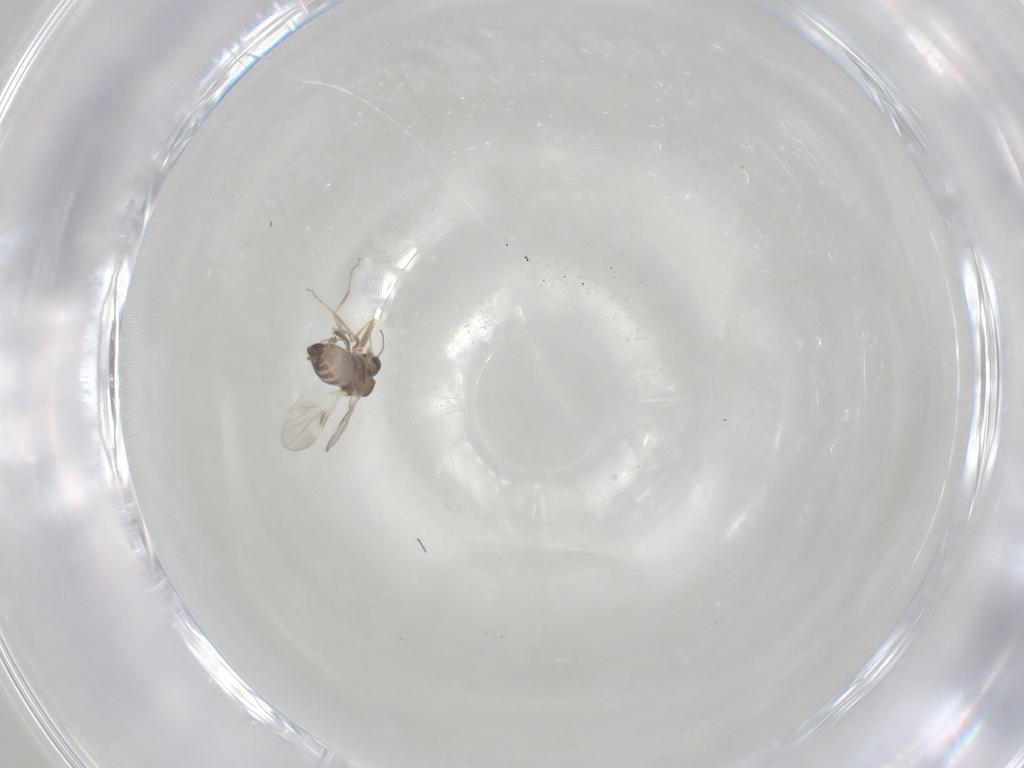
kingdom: Animalia
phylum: Arthropoda
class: Insecta
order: Diptera
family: Ceratopogonidae
